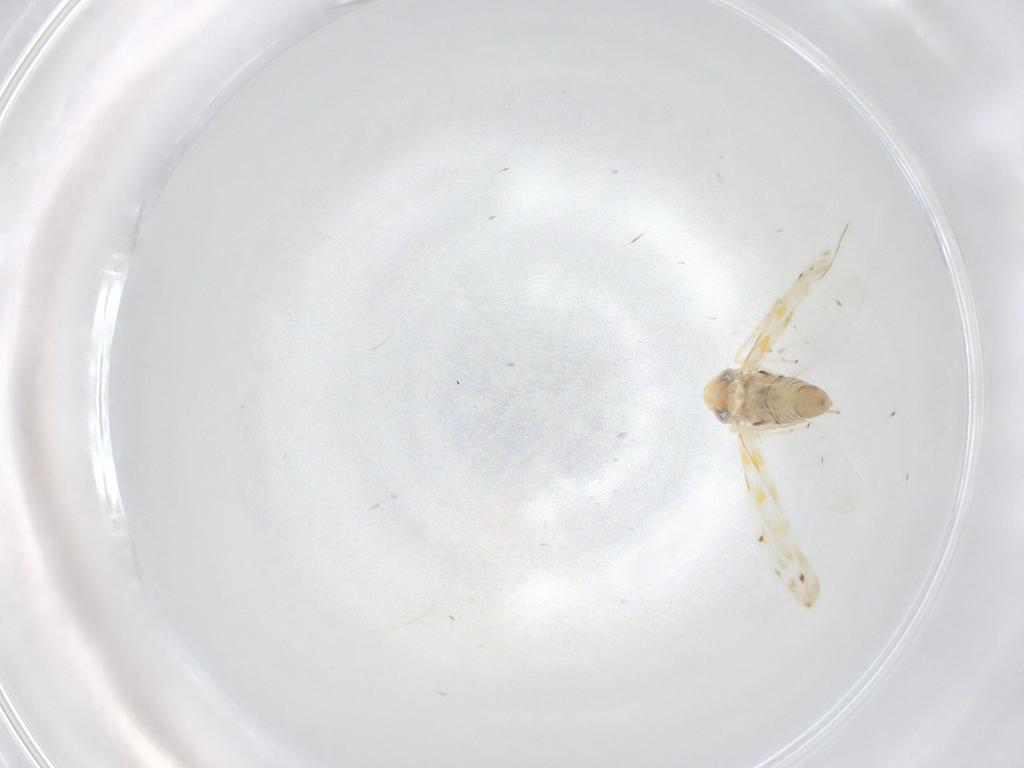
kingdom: Animalia
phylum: Arthropoda
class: Insecta
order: Hemiptera
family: Cicadellidae
